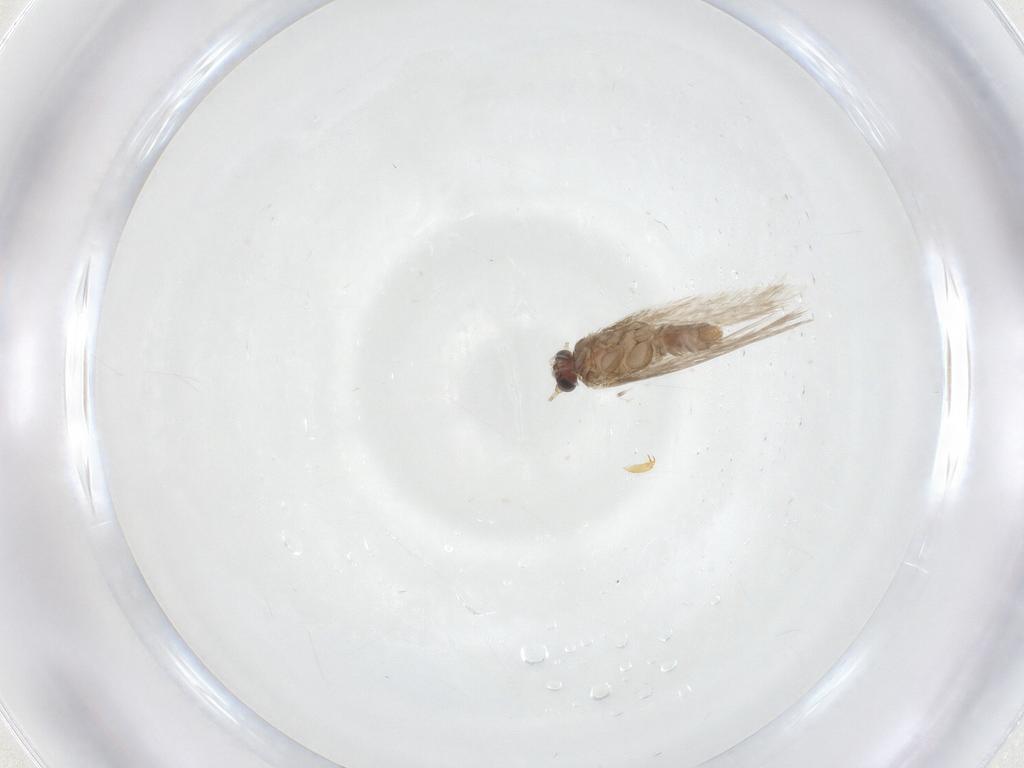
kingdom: Animalia
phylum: Arthropoda
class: Insecta
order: Lepidoptera
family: Nepticulidae
